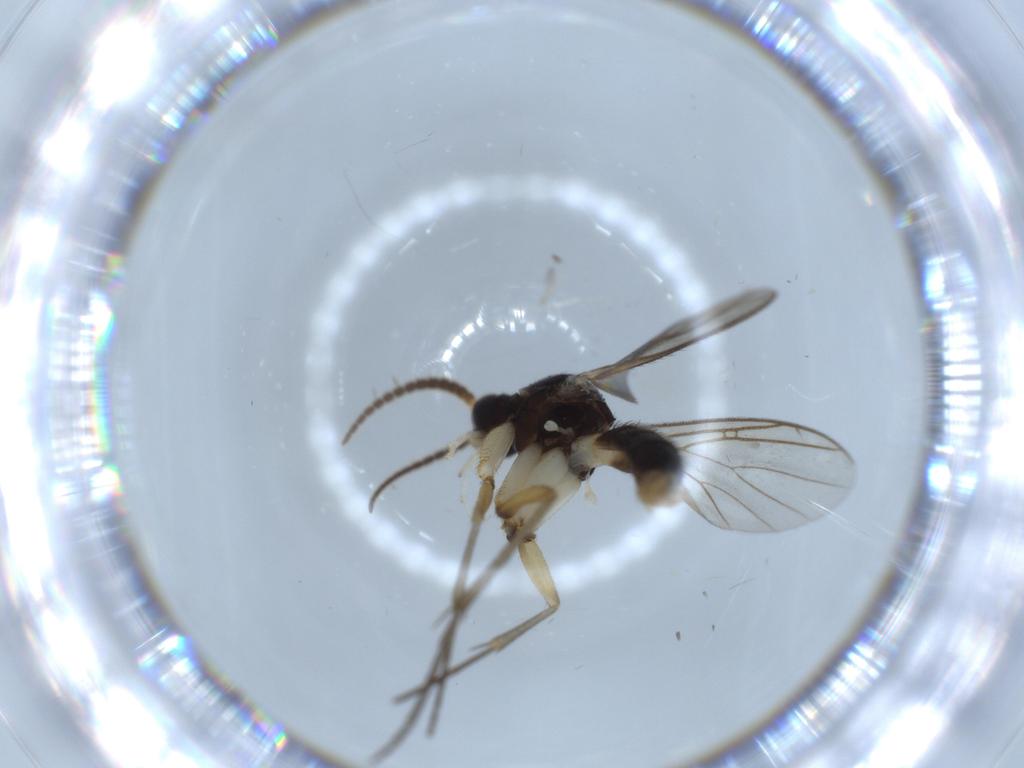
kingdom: Animalia
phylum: Arthropoda
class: Insecta
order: Diptera
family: Mycetophilidae
